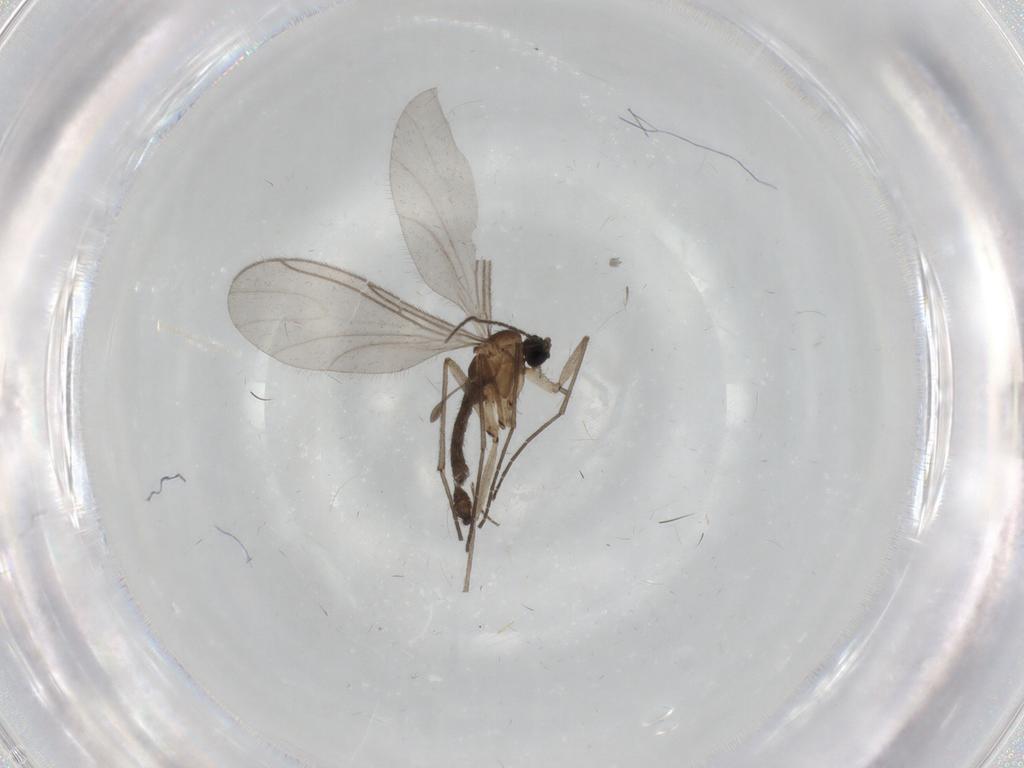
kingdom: Animalia
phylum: Arthropoda
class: Insecta
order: Diptera
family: Sciaridae
